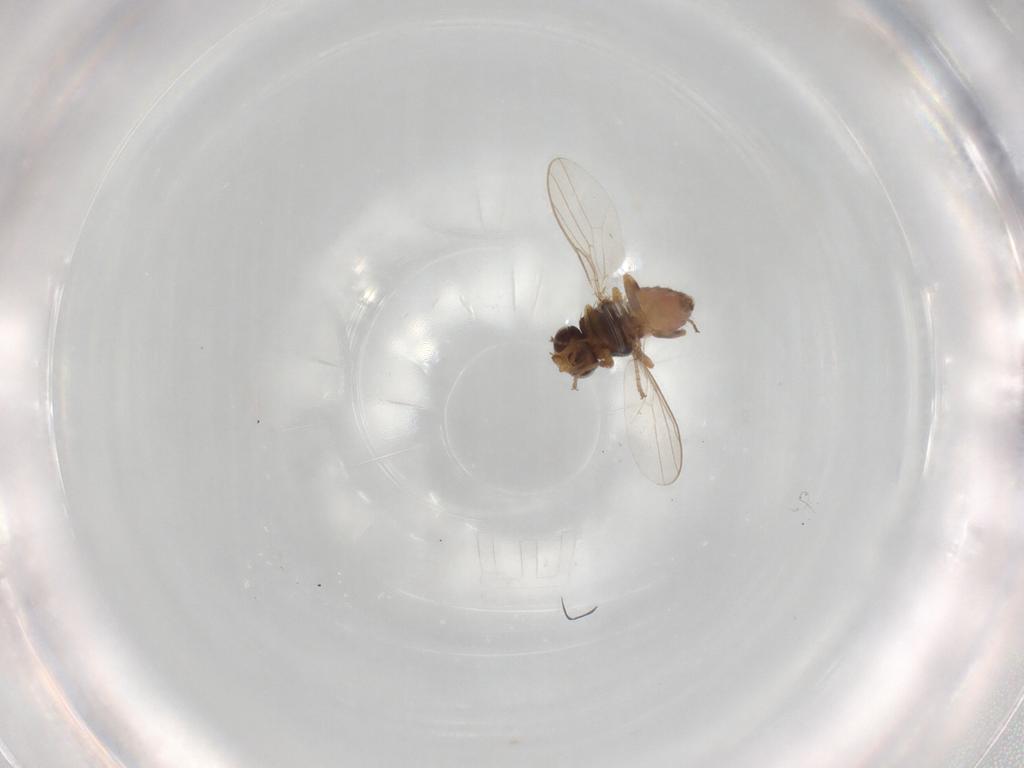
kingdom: Animalia
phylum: Arthropoda
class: Insecta
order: Diptera
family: Chloropidae
